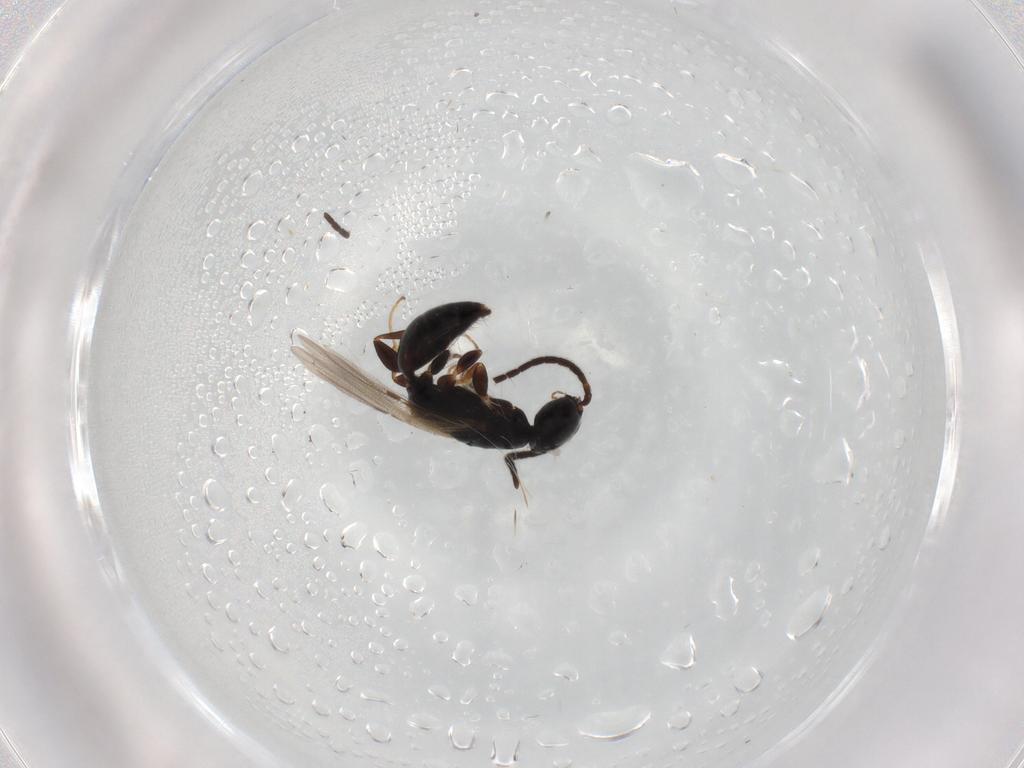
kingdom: Animalia
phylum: Arthropoda
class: Insecta
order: Hymenoptera
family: Bethylidae
